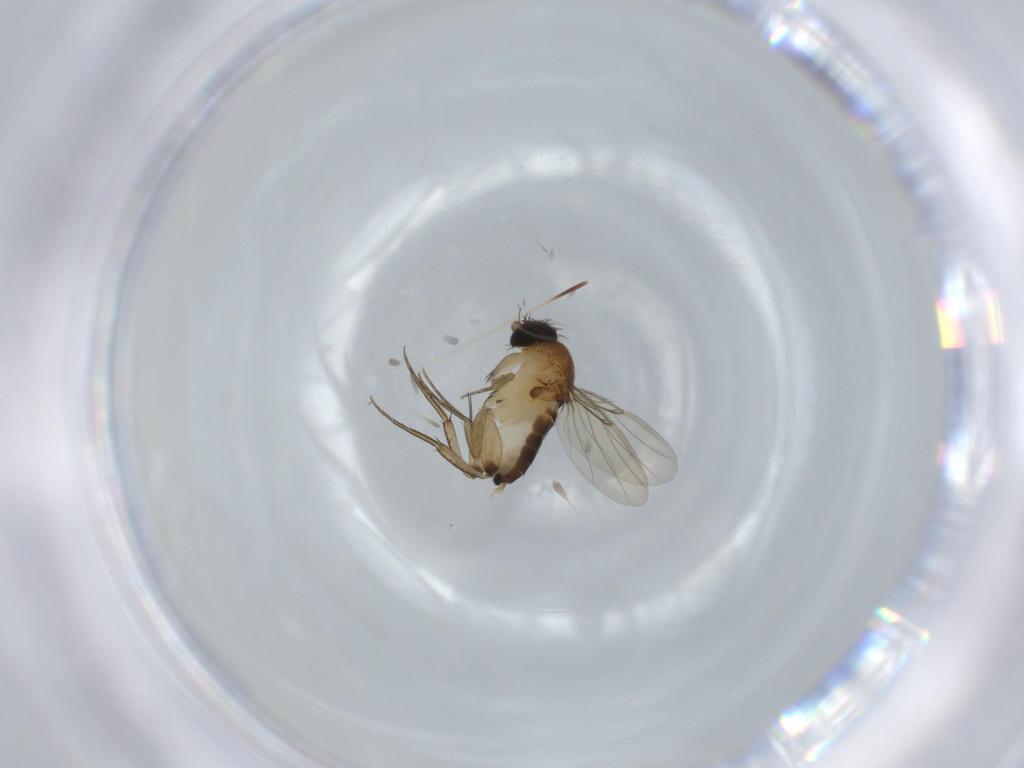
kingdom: Animalia
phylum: Arthropoda
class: Insecta
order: Diptera
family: Phoridae
